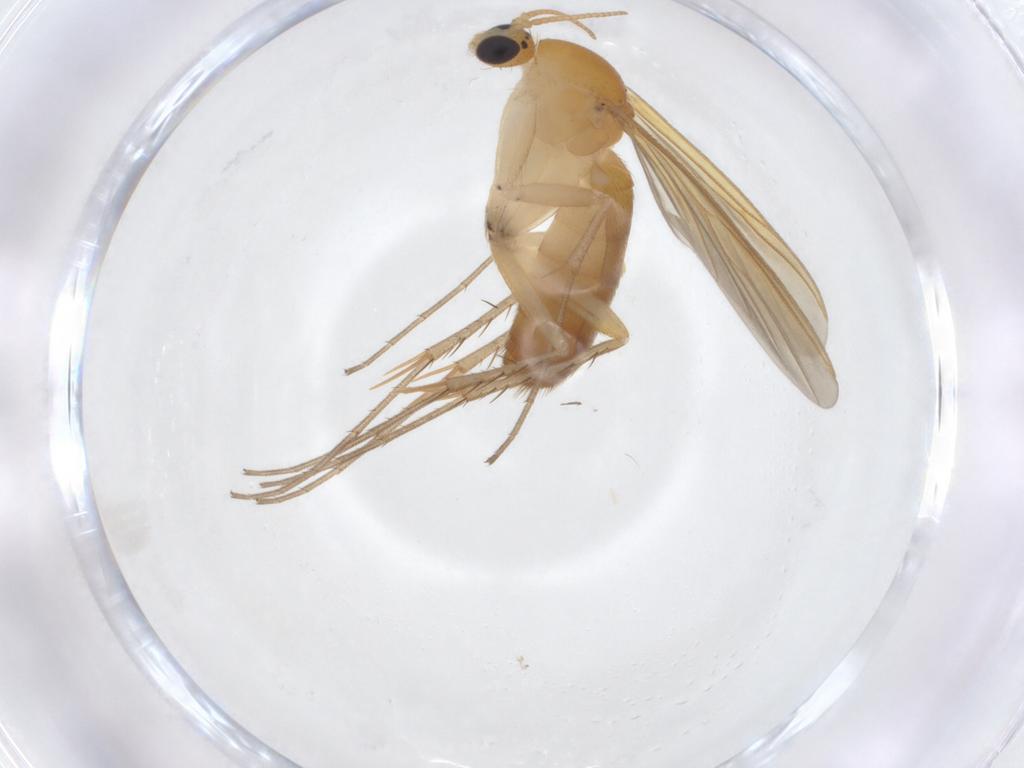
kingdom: Animalia
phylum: Arthropoda
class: Insecta
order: Diptera
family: Mycetophilidae
